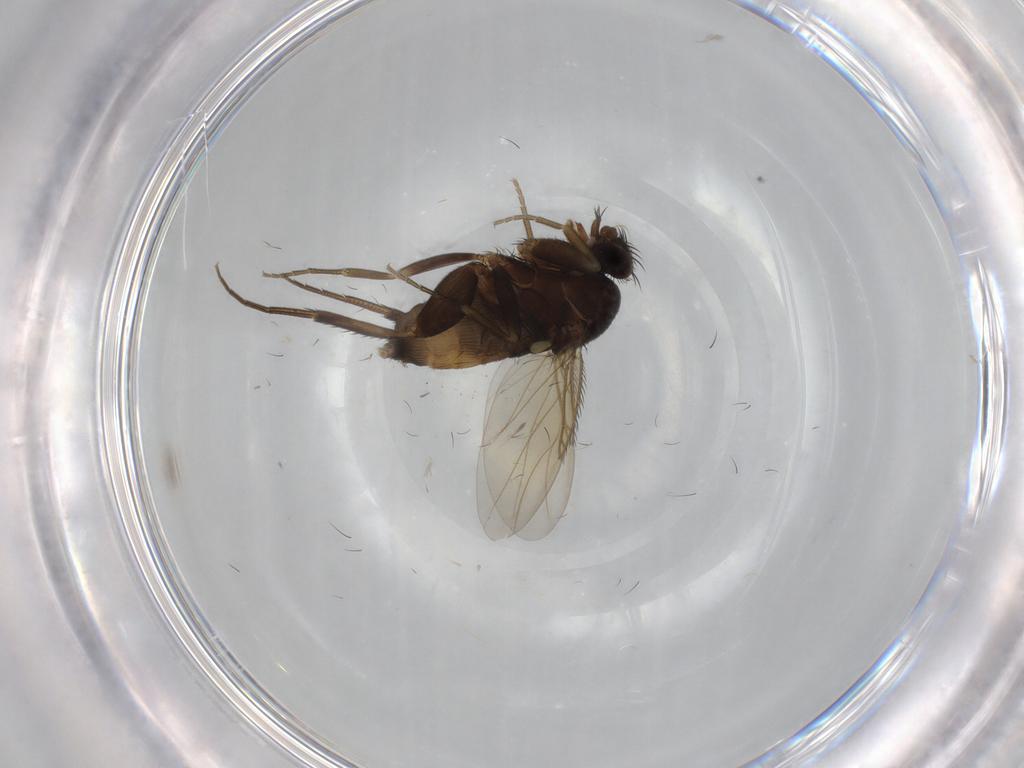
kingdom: Animalia
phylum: Arthropoda
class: Insecta
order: Diptera
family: Phoridae
